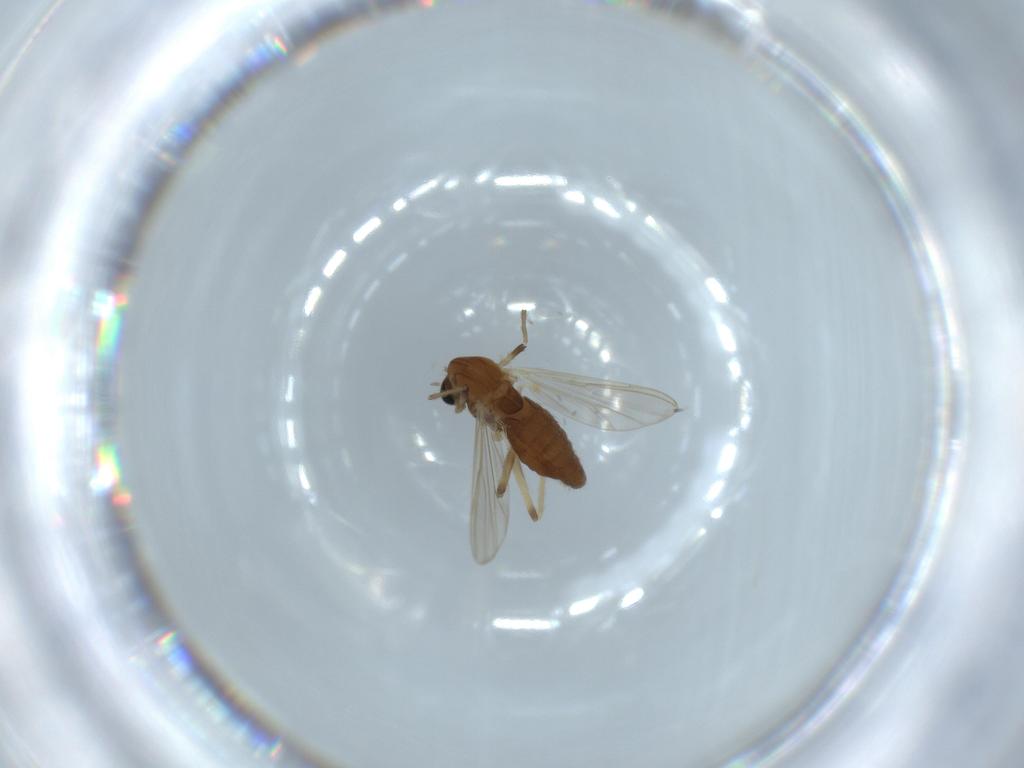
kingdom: Animalia
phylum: Arthropoda
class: Insecta
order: Diptera
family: Chironomidae
